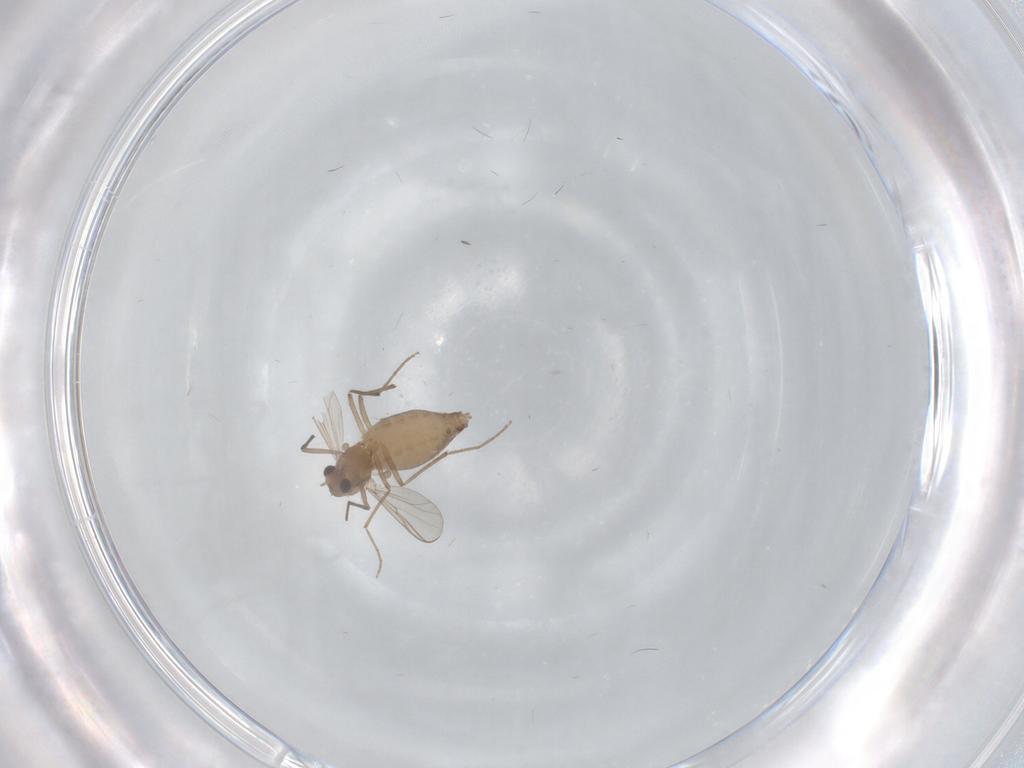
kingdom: Animalia
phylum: Arthropoda
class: Insecta
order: Diptera
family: Chironomidae
